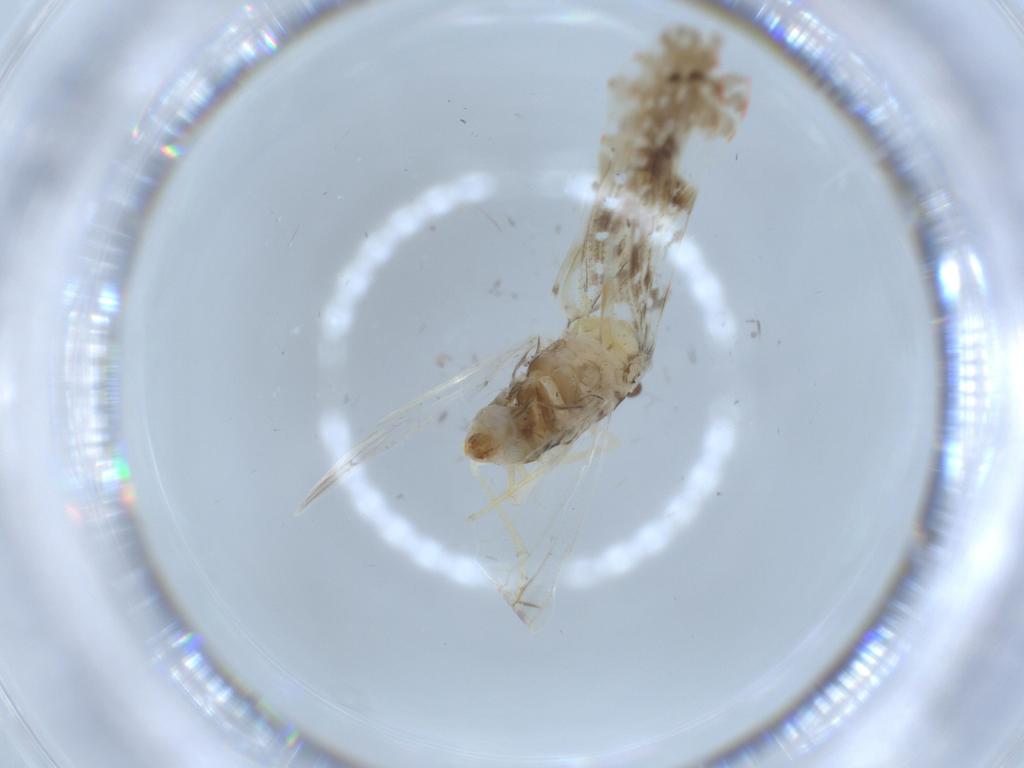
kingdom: Animalia
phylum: Arthropoda
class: Insecta
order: Hemiptera
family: Derbidae
